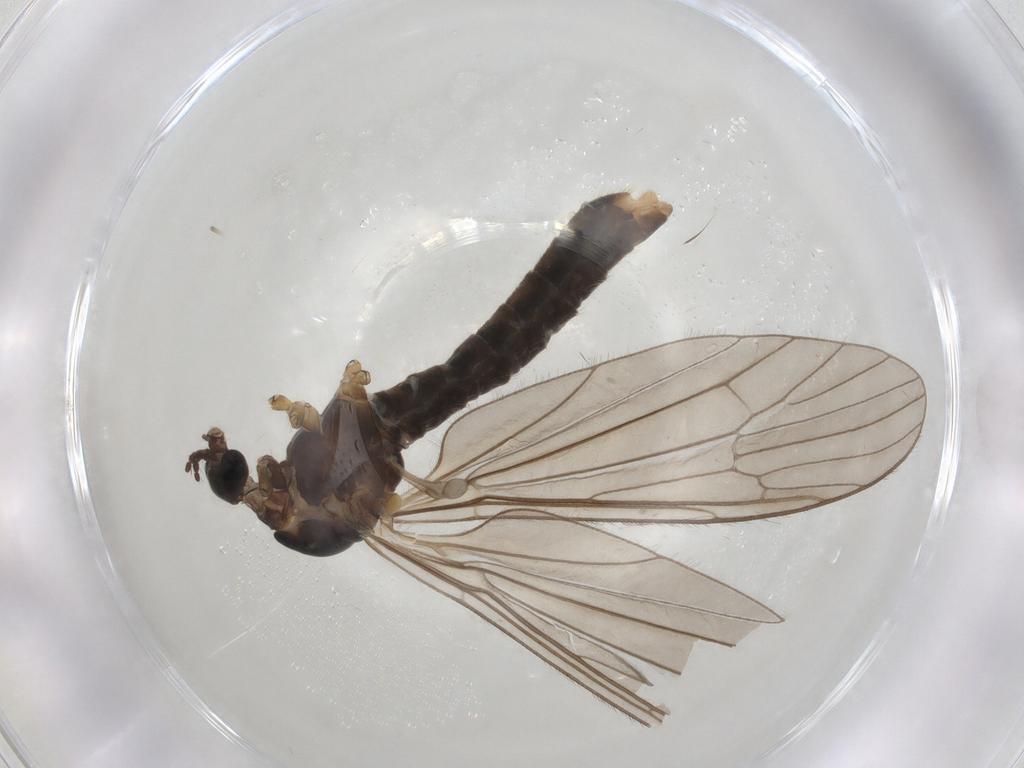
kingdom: Animalia
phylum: Arthropoda
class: Insecta
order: Diptera
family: Limoniidae
